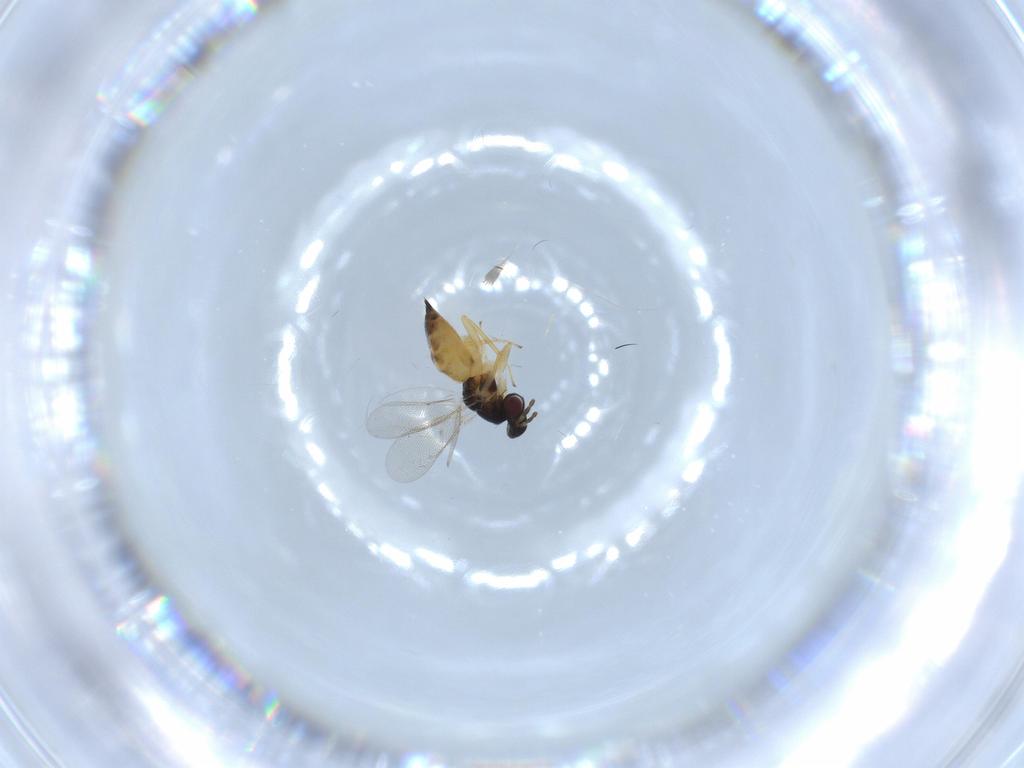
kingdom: Animalia
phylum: Arthropoda
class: Insecta
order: Hymenoptera
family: Eulophidae
